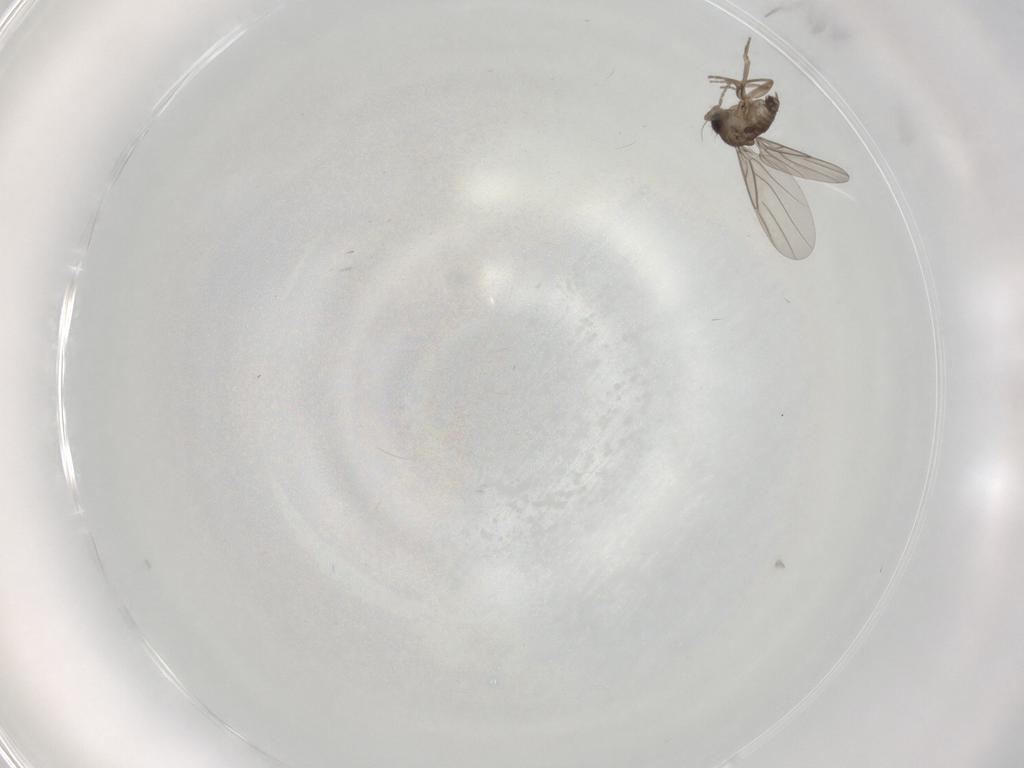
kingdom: Animalia
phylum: Arthropoda
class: Insecta
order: Diptera
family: Phoridae
